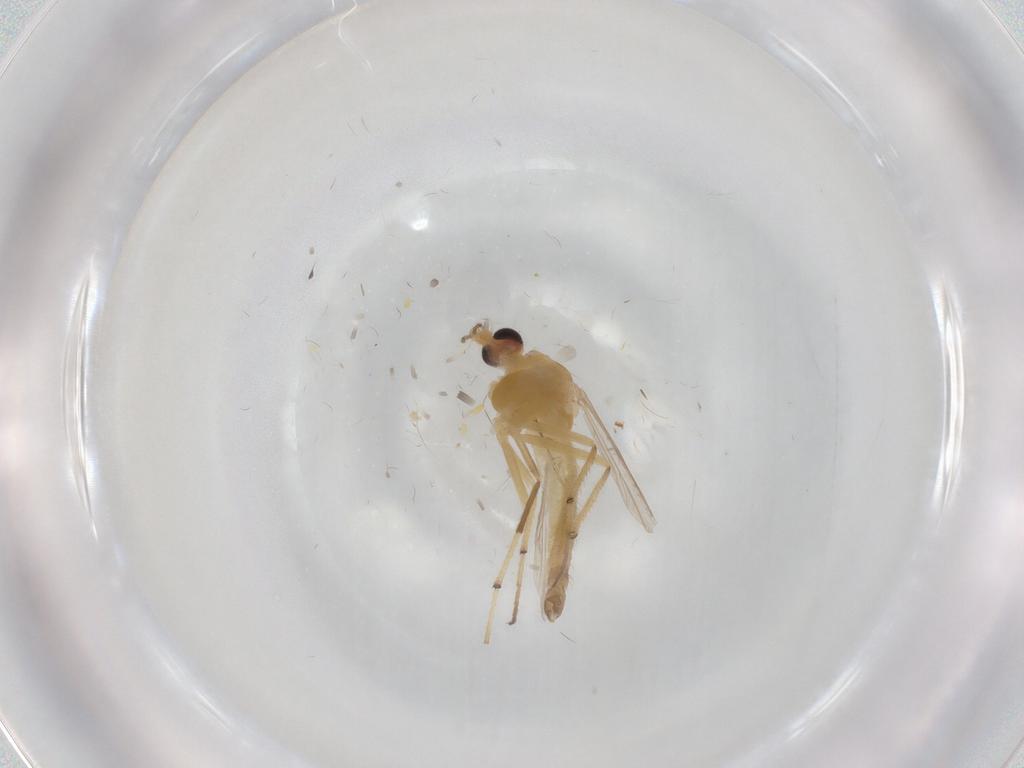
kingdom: Animalia
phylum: Arthropoda
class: Insecta
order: Diptera
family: Chironomidae
